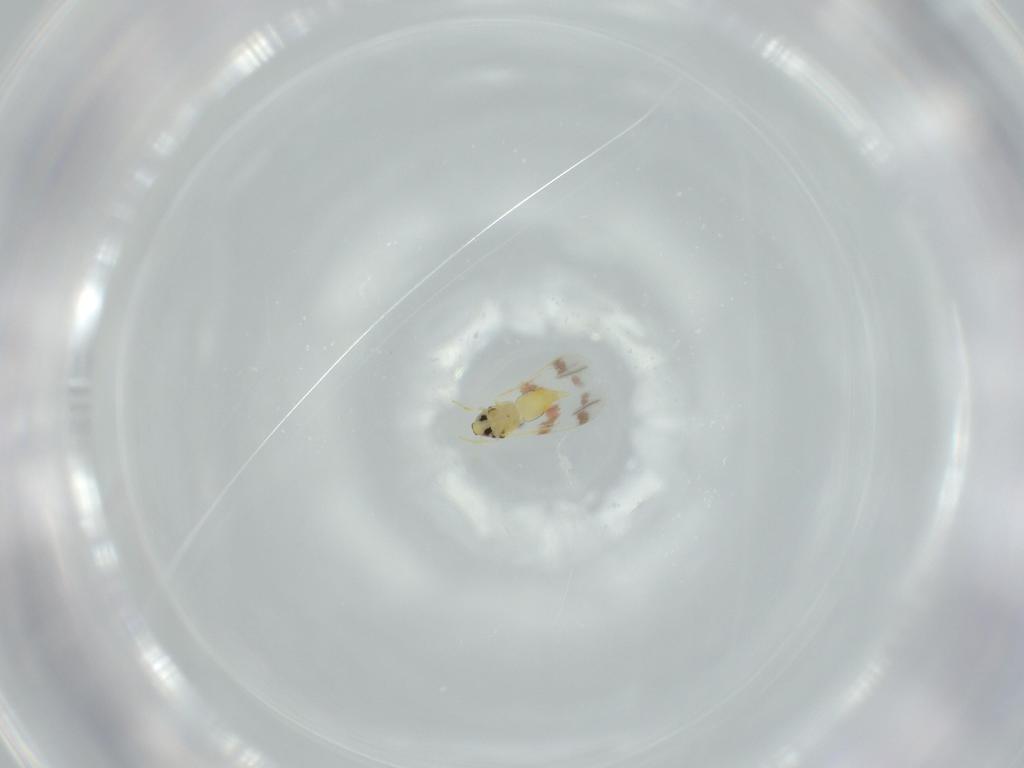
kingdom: Animalia
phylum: Arthropoda
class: Insecta
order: Hemiptera
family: Aleyrodidae
